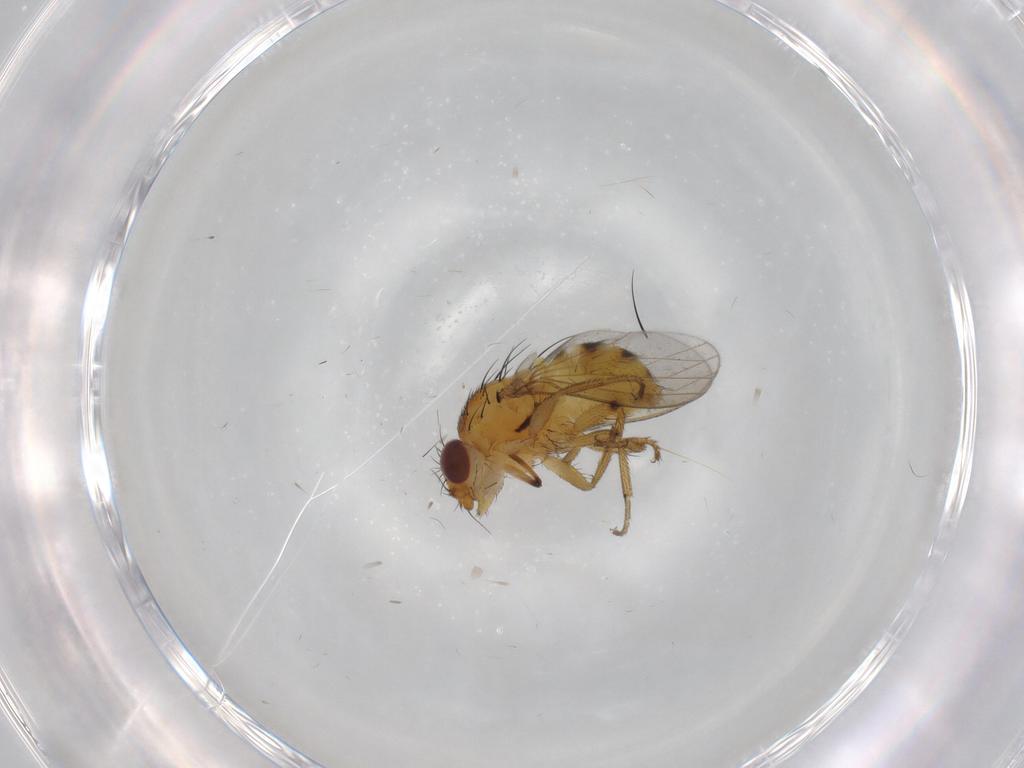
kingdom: Animalia
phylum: Arthropoda
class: Insecta
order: Diptera
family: Milichiidae
